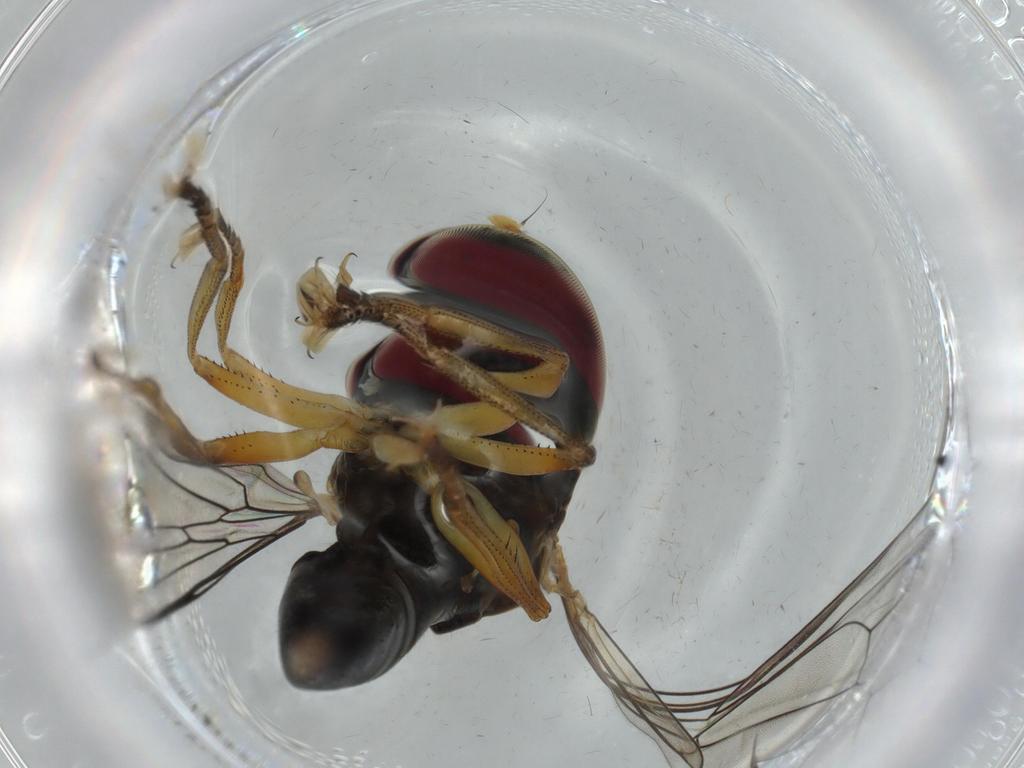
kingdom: Animalia
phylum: Arthropoda
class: Insecta
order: Diptera
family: Pipunculidae
